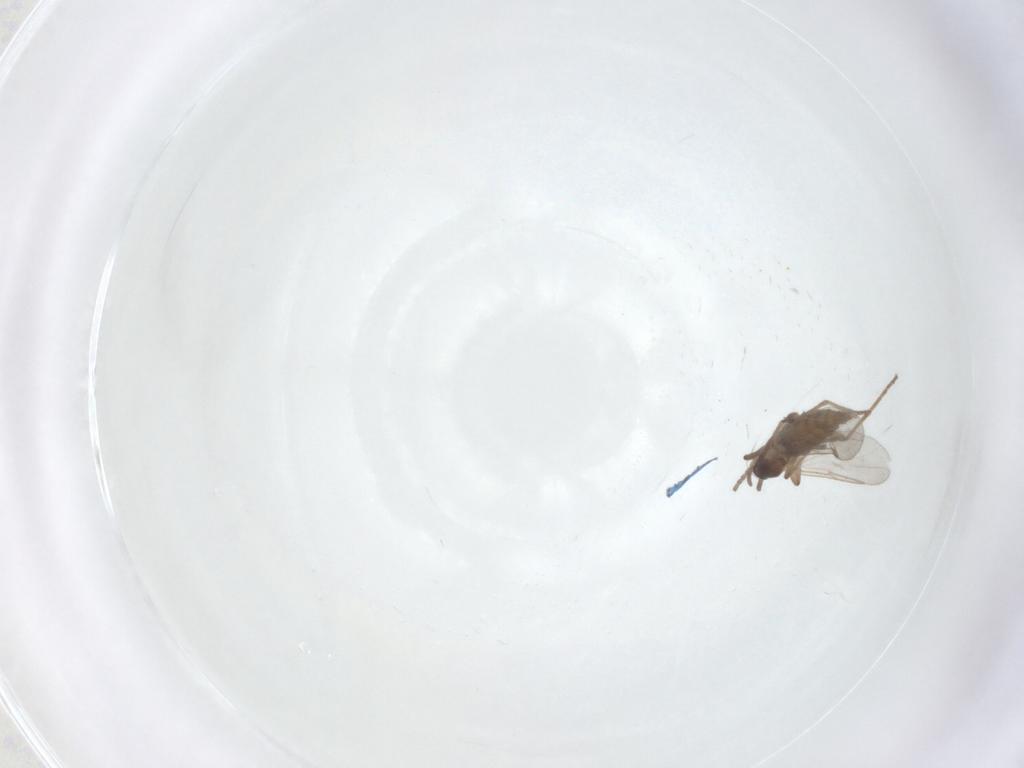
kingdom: Animalia
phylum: Arthropoda
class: Insecta
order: Diptera
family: Cecidomyiidae
